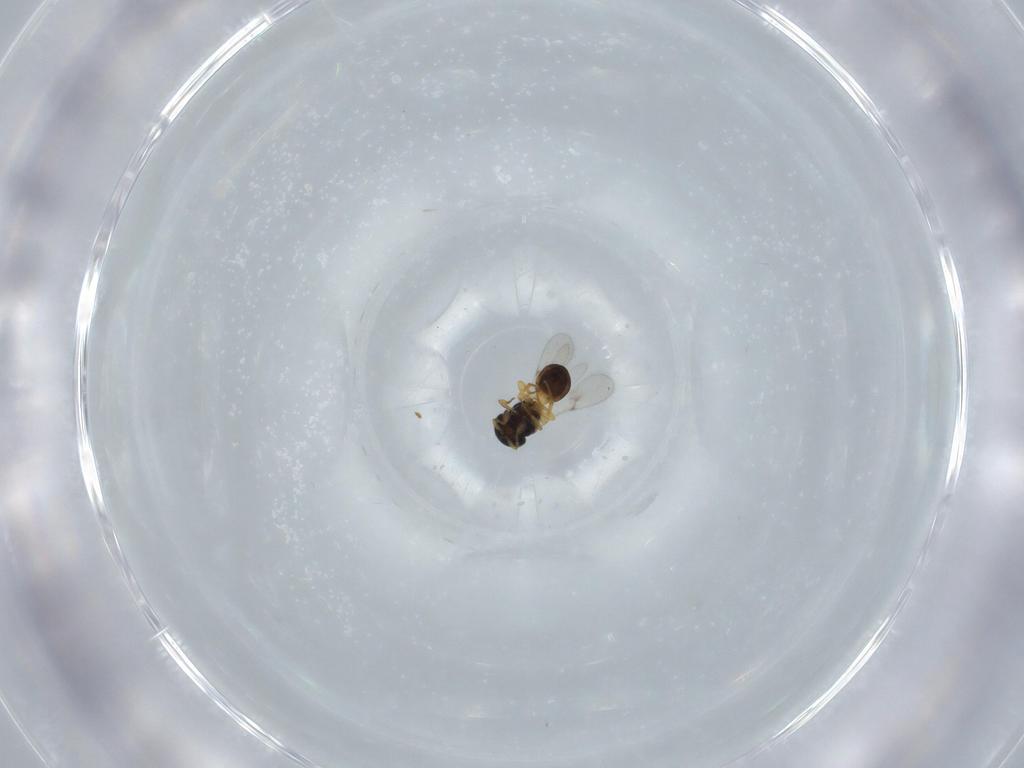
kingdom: Animalia
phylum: Arthropoda
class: Insecta
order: Hymenoptera
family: Scelionidae
